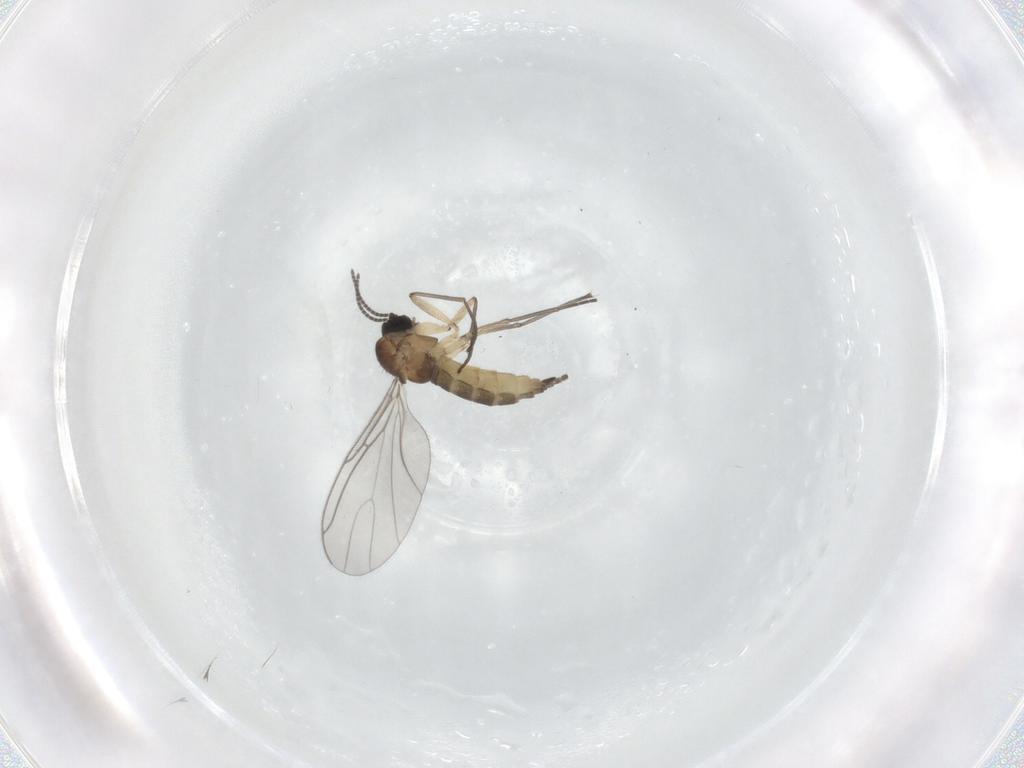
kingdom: Animalia
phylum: Arthropoda
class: Insecta
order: Diptera
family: Sciaridae
